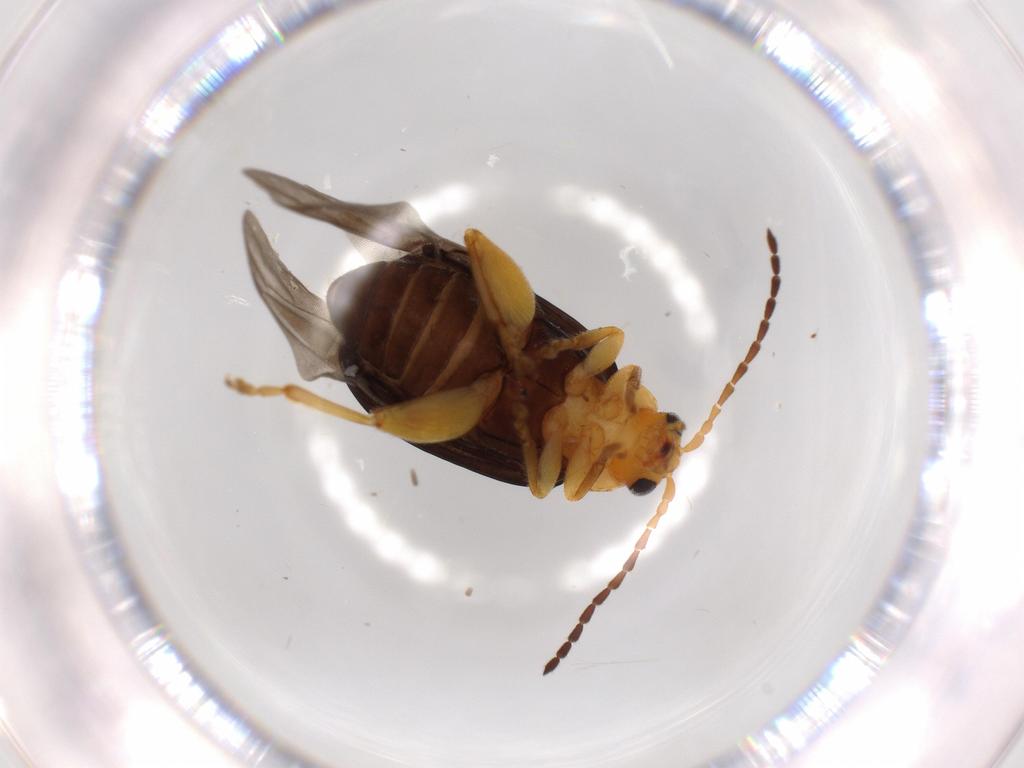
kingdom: Animalia
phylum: Arthropoda
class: Insecta
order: Coleoptera
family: Chrysomelidae
